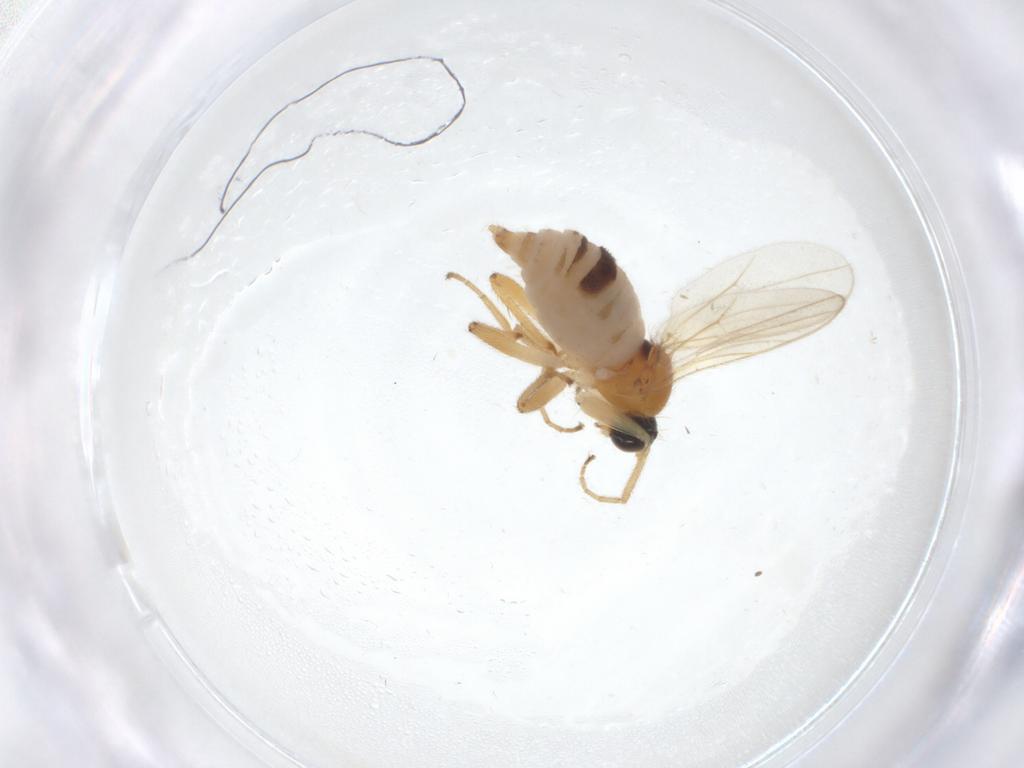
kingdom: Animalia
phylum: Arthropoda
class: Insecta
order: Diptera
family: Hybotidae
